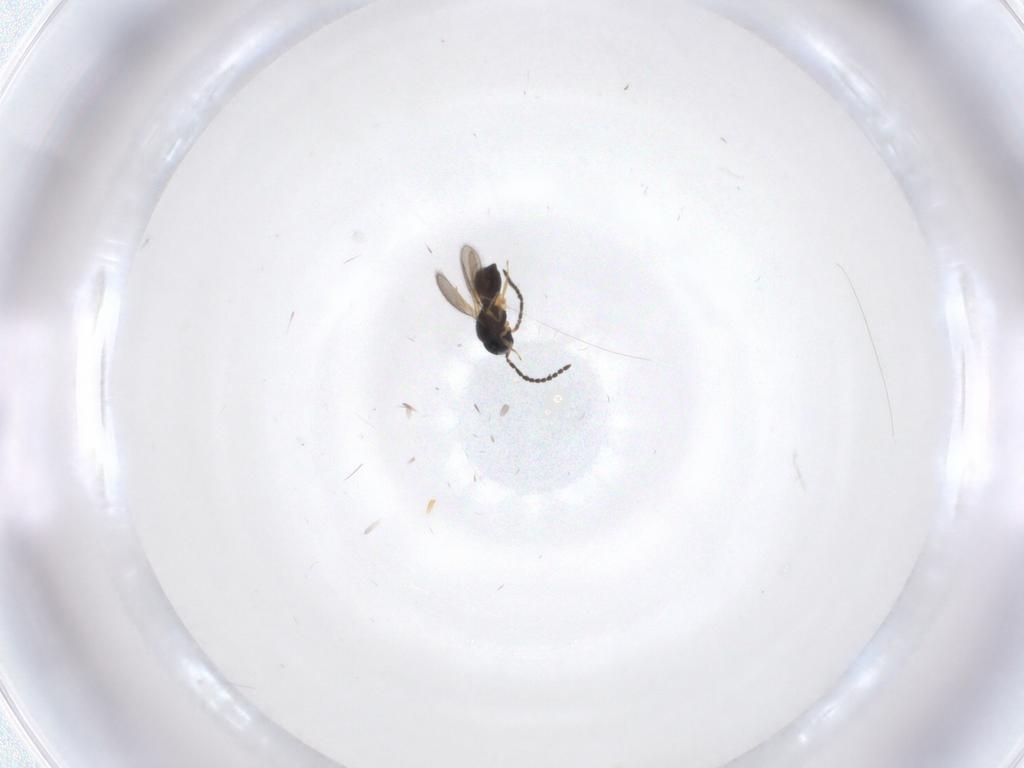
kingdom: Animalia
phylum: Arthropoda
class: Insecta
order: Hymenoptera
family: Scelionidae
